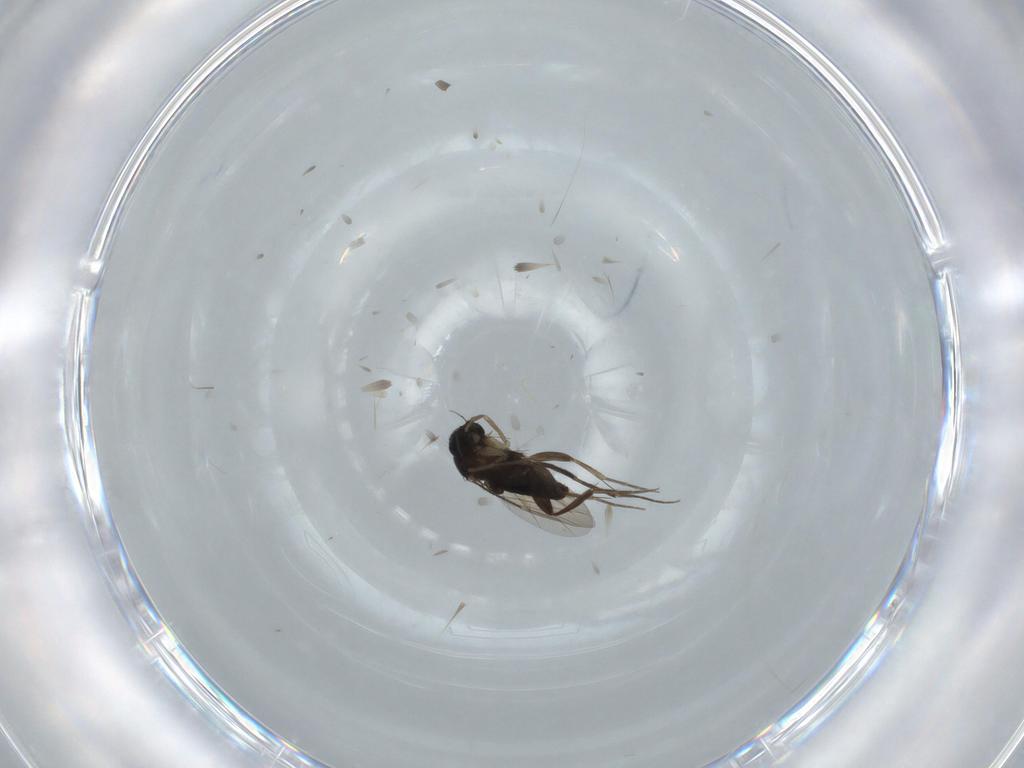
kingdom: Animalia
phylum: Arthropoda
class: Insecta
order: Diptera
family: Phoridae
